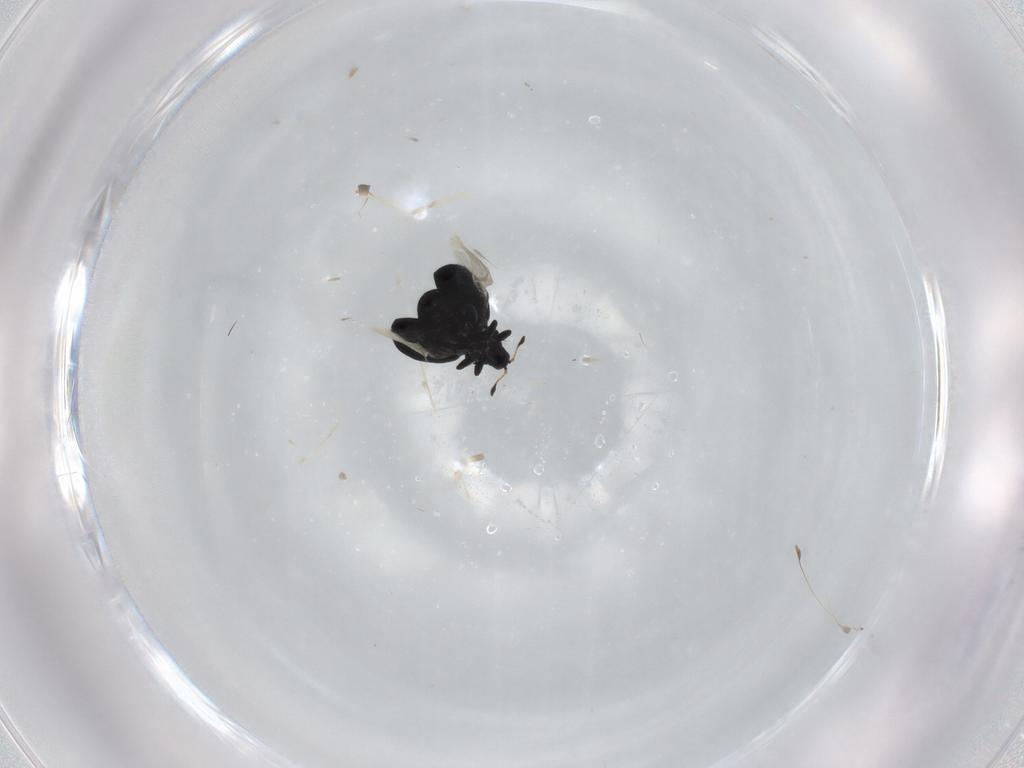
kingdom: Animalia
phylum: Arthropoda
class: Insecta
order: Coleoptera
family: Curculionidae
